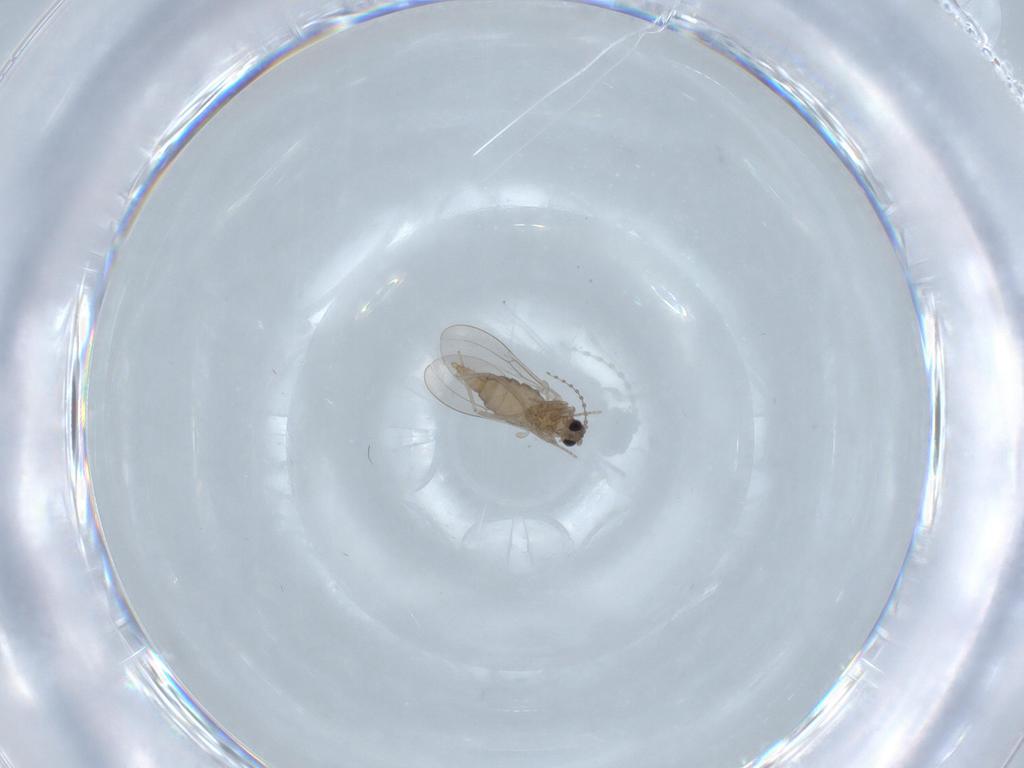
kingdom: Animalia
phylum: Arthropoda
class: Insecta
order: Diptera
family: Cecidomyiidae
